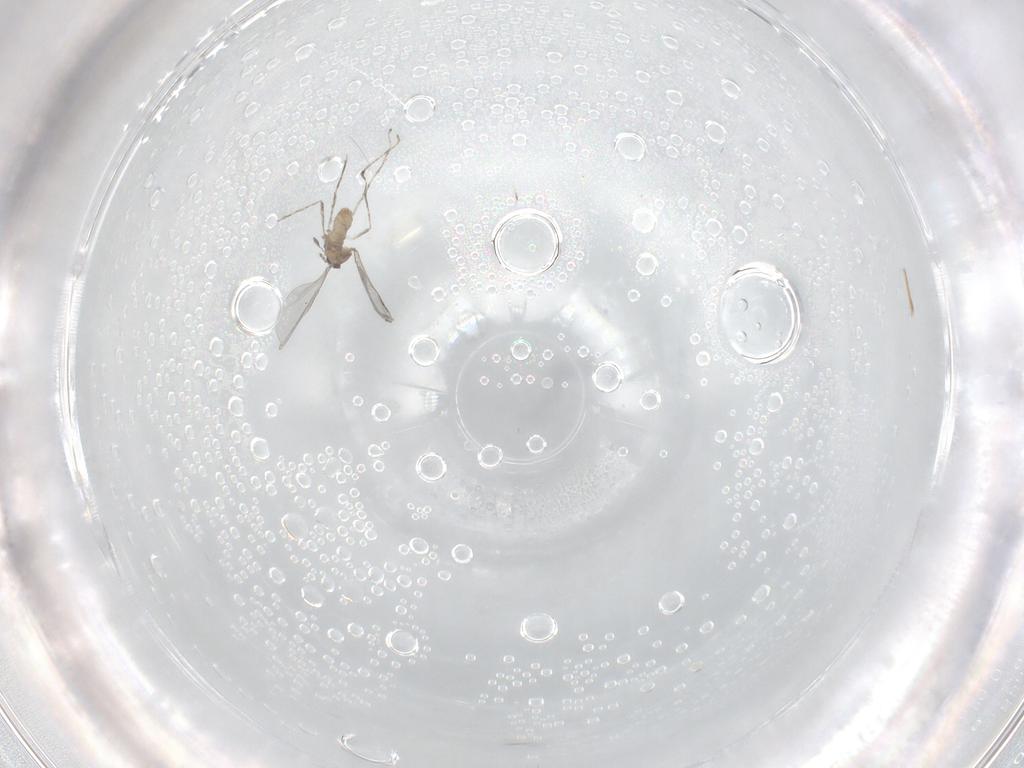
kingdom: Animalia
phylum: Arthropoda
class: Insecta
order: Diptera
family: Cecidomyiidae
